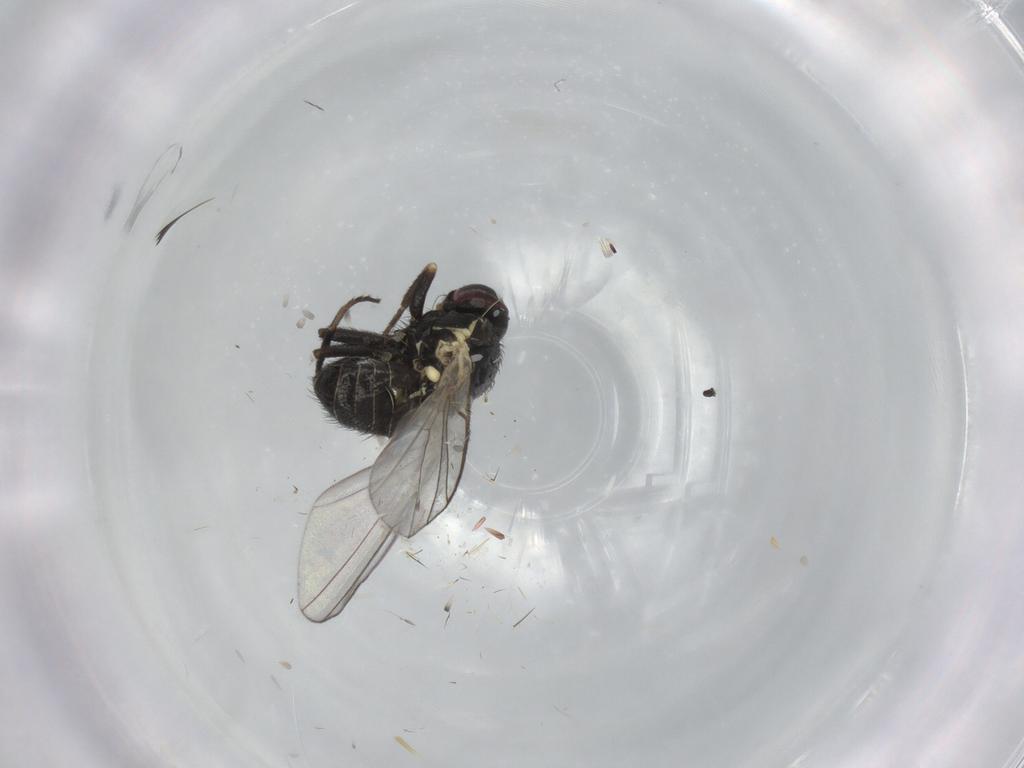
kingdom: Animalia
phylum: Arthropoda
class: Insecta
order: Diptera
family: Agromyzidae
